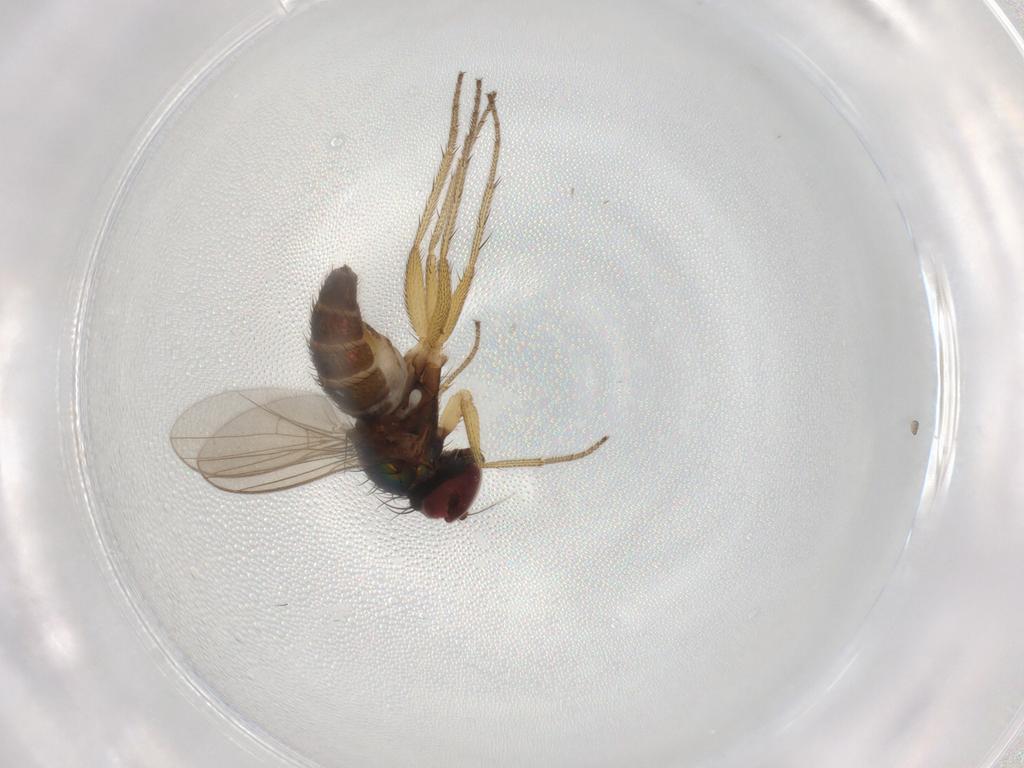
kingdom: Animalia
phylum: Arthropoda
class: Insecta
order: Diptera
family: Dolichopodidae
